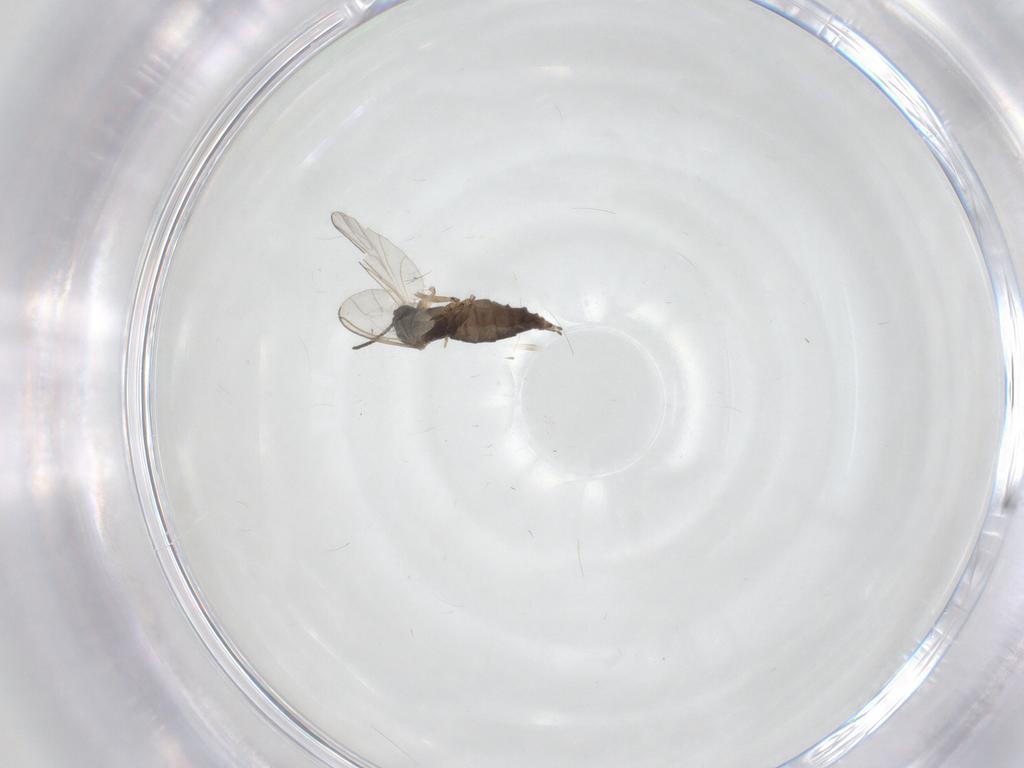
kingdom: Animalia
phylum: Arthropoda
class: Insecta
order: Diptera
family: Sciaridae
